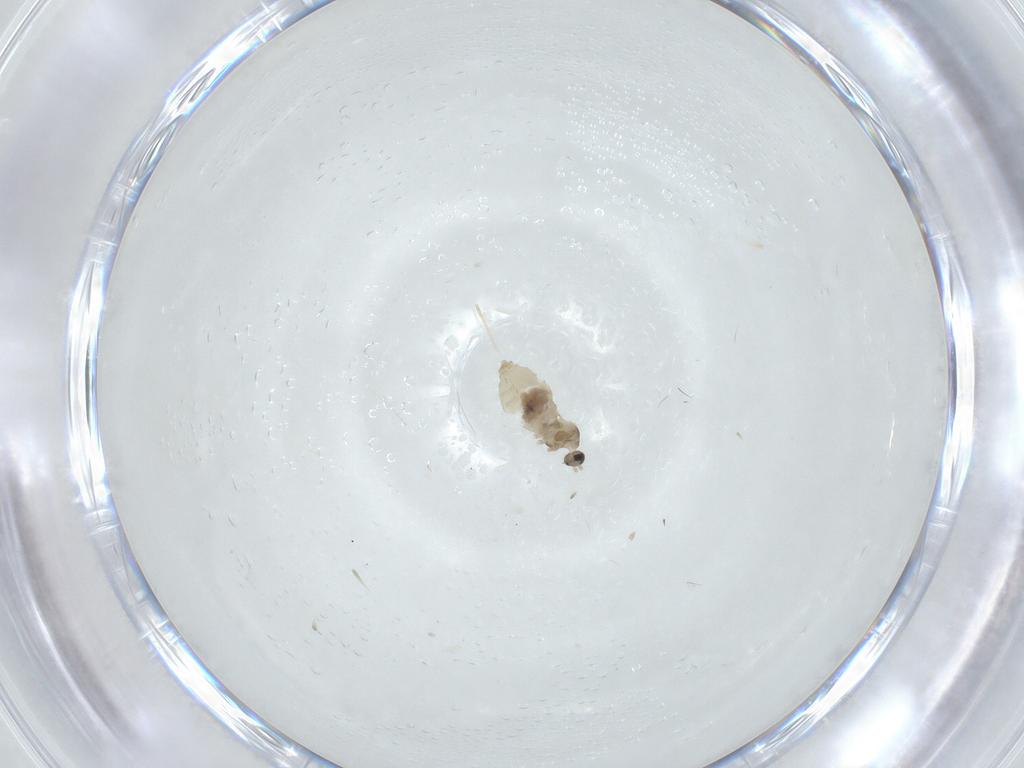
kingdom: Animalia
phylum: Arthropoda
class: Insecta
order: Diptera
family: Cecidomyiidae
